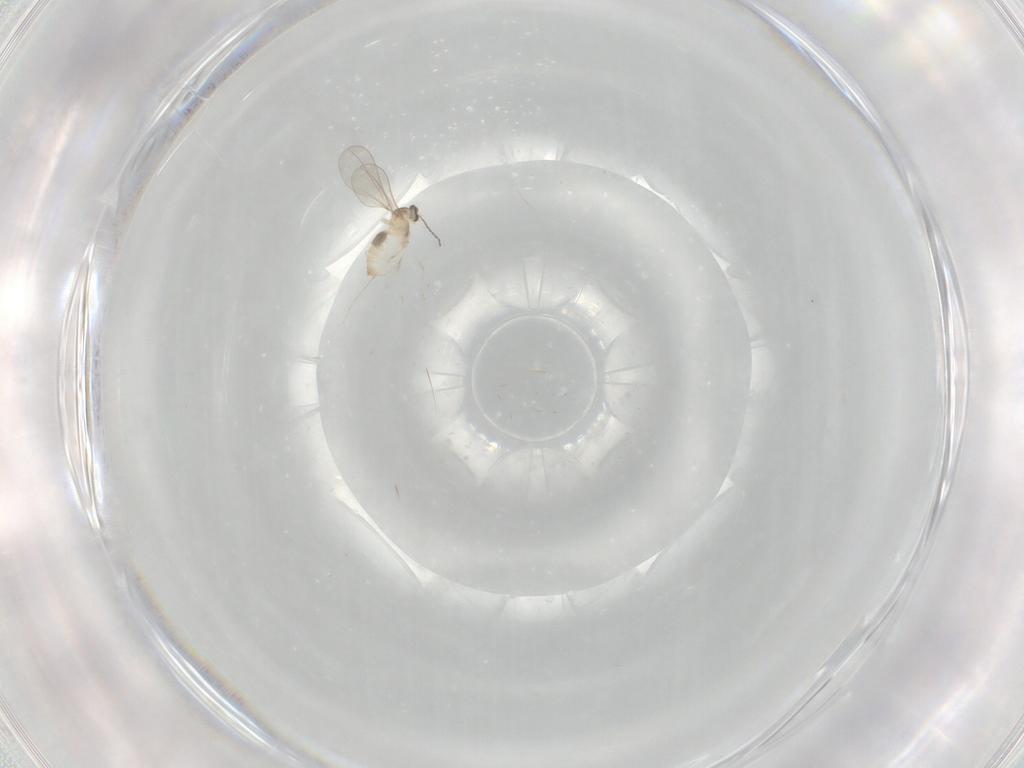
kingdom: Animalia
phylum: Arthropoda
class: Insecta
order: Diptera
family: Cecidomyiidae
